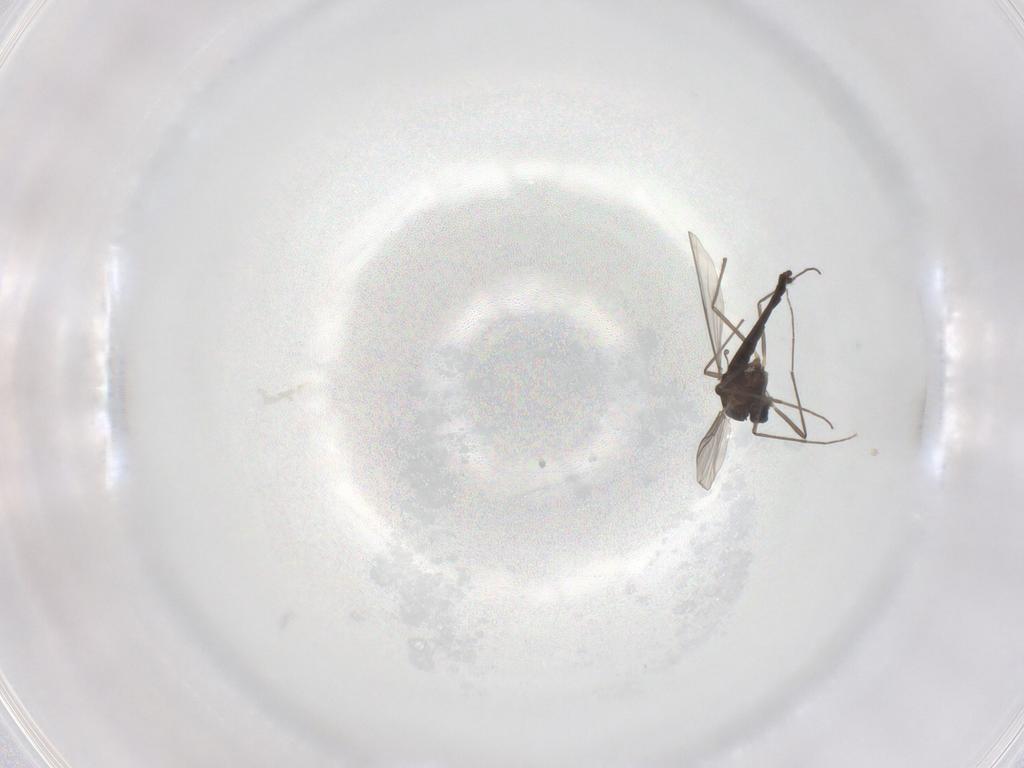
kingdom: Animalia
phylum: Arthropoda
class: Insecta
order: Diptera
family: Chironomidae
